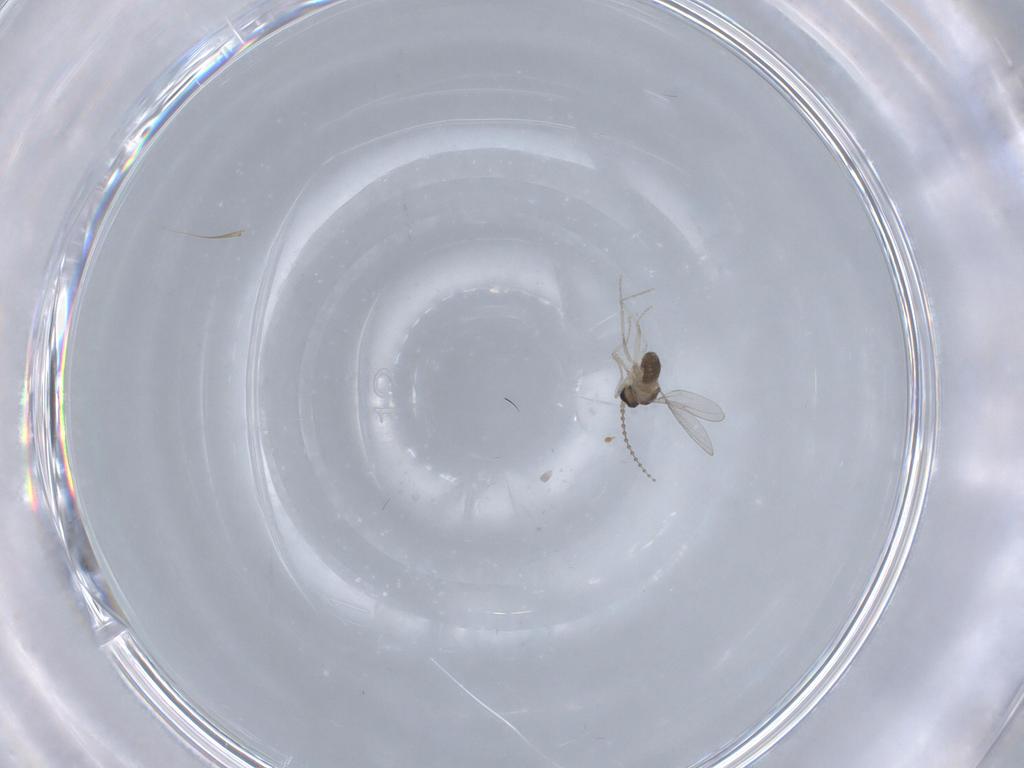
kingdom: Animalia
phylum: Arthropoda
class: Insecta
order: Diptera
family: Cecidomyiidae
